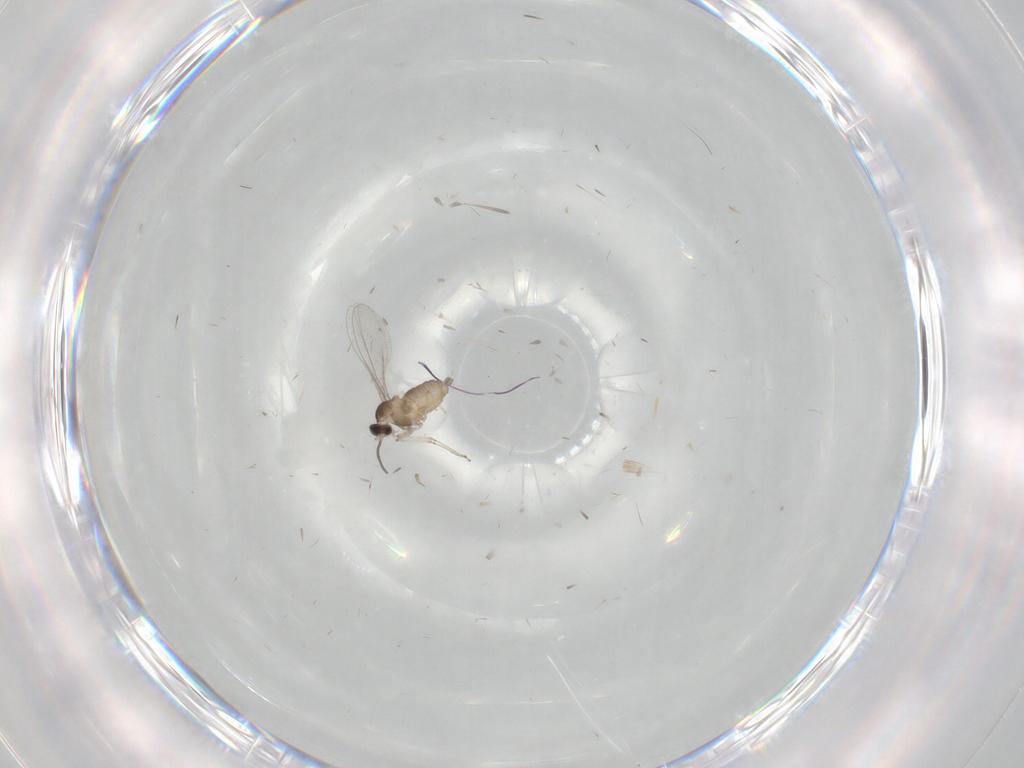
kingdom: Animalia
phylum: Arthropoda
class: Insecta
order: Diptera
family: Cecidomyiidae
